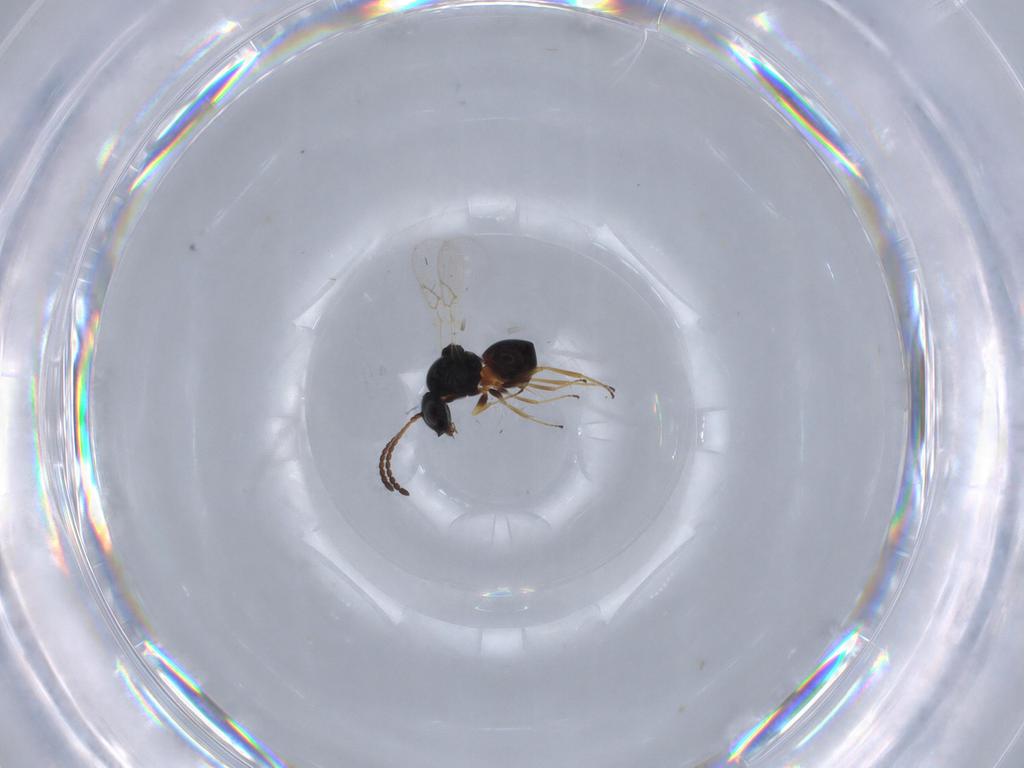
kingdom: Animalia
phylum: Arthropoda
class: Insecta
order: Hymenoptera
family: Figitidae
